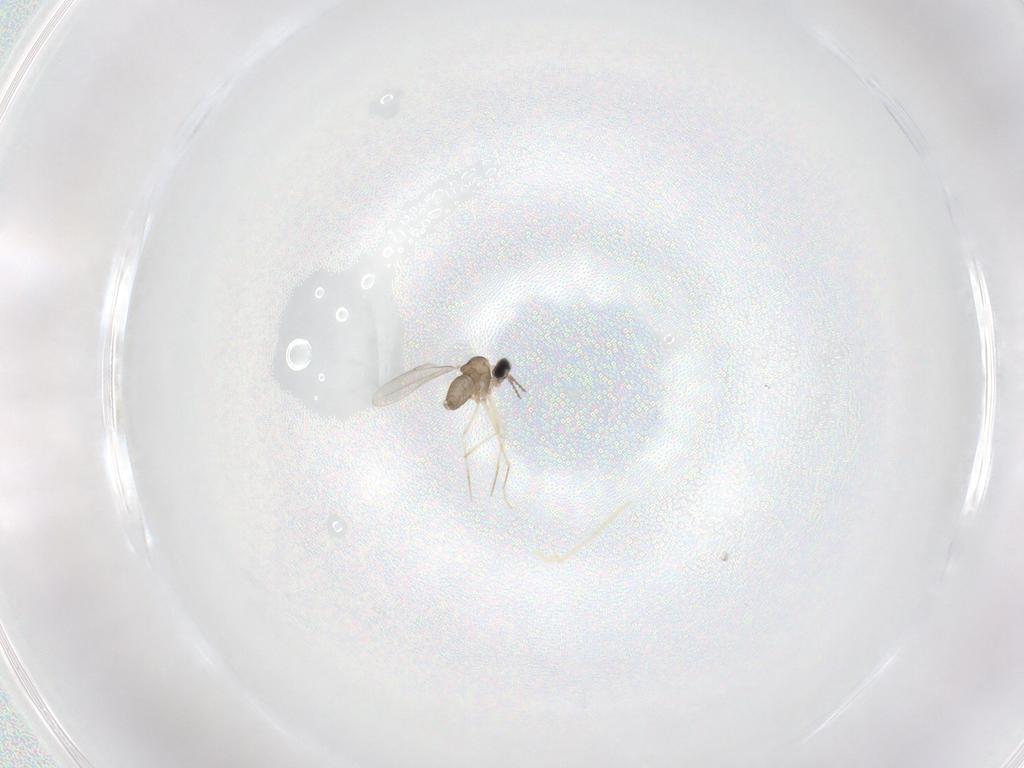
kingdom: Animalia
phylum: Arthropoda
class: Insecta
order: Diptera
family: Cecidomyiidae
